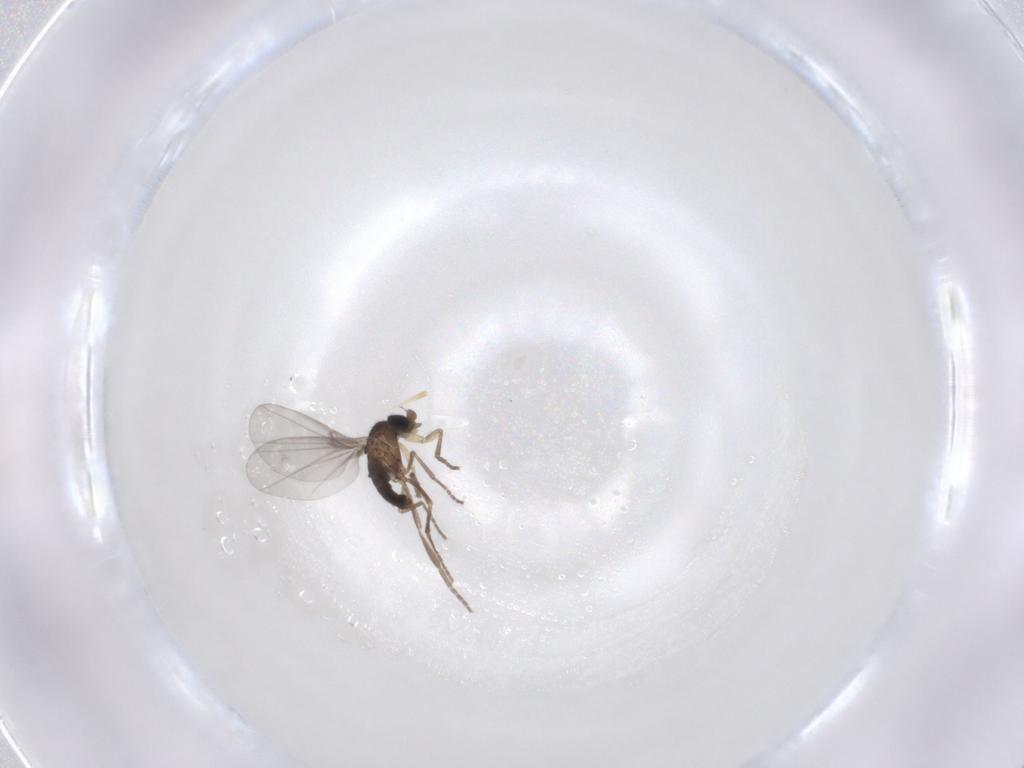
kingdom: Animalia
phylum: Arthropoda
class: Insecta
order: Diptera
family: Phoridae
